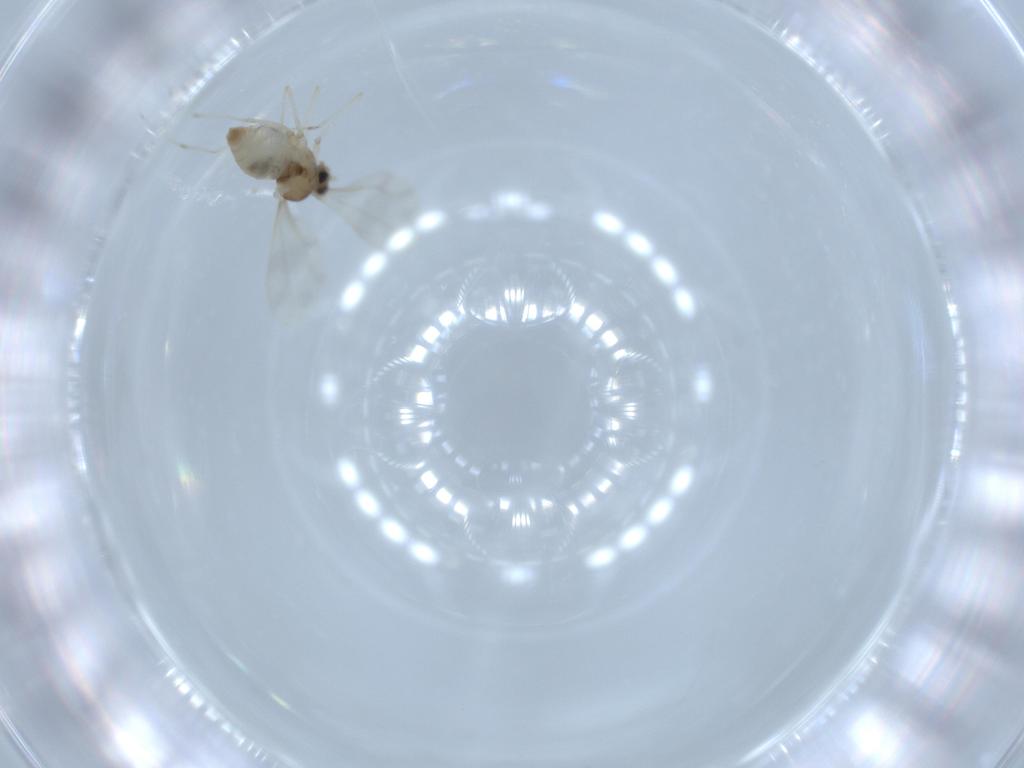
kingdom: Animalia
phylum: Arthropoda
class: Insecta
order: Diptera
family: Cecidomyiidae
